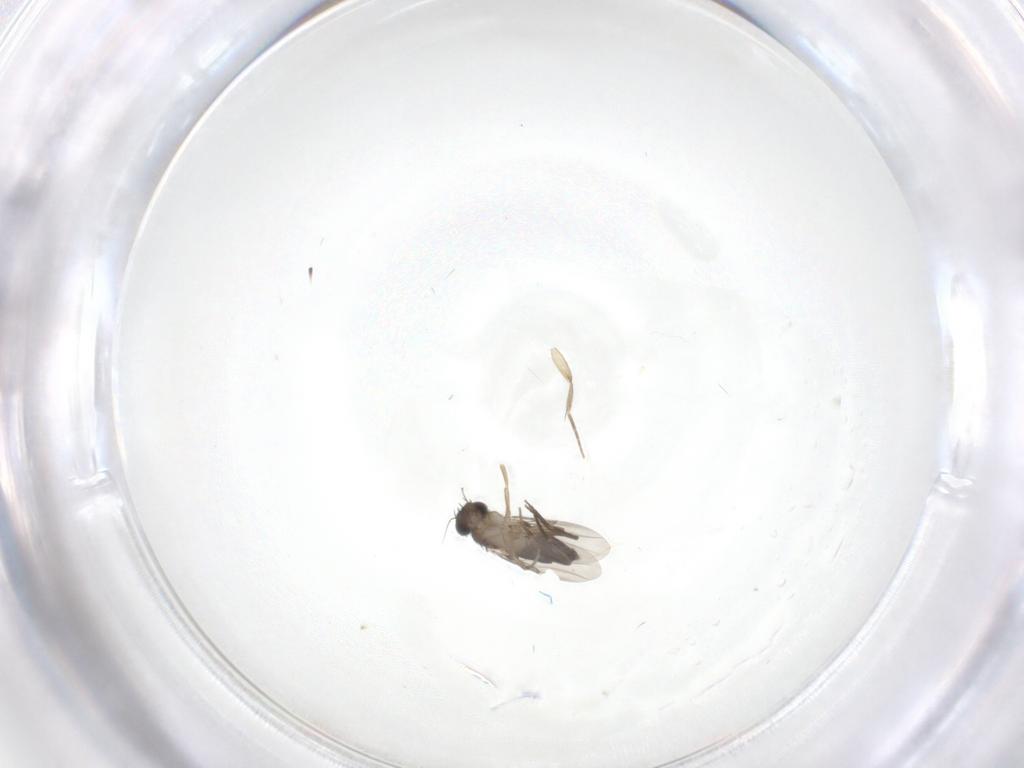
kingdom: Animalia
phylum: Arthropoda
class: Insecta
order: Diptera
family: Phoridae
